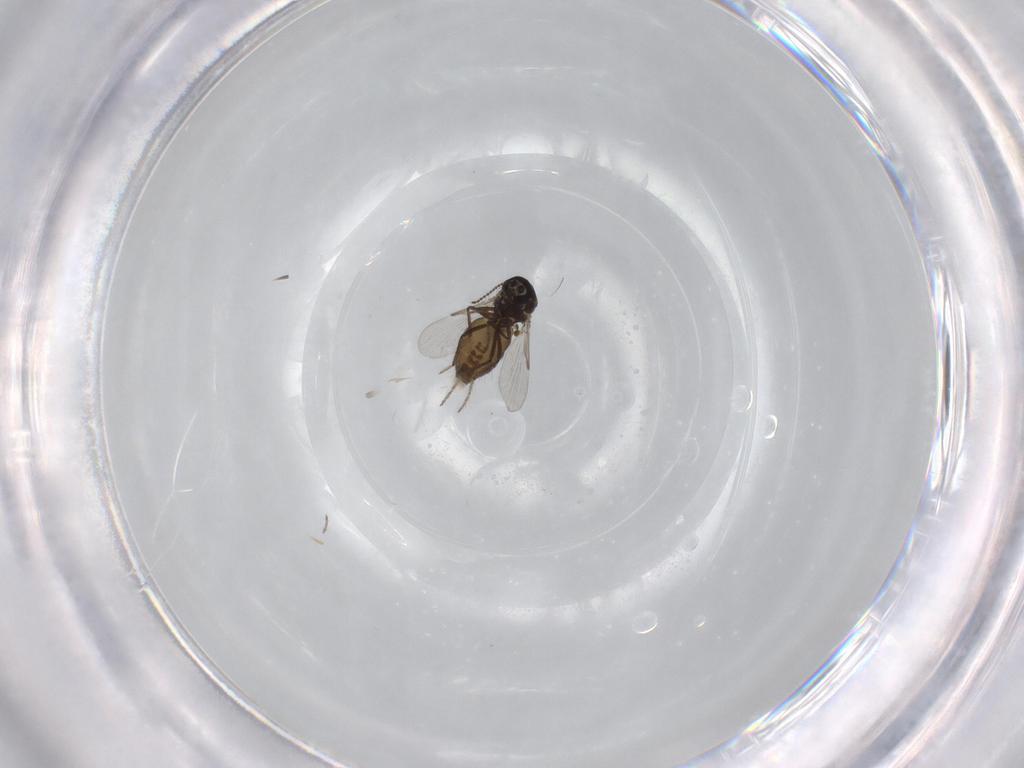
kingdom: Animalia
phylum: Arthropoda
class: Insecta
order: Diptera
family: Ceratopogonidae
